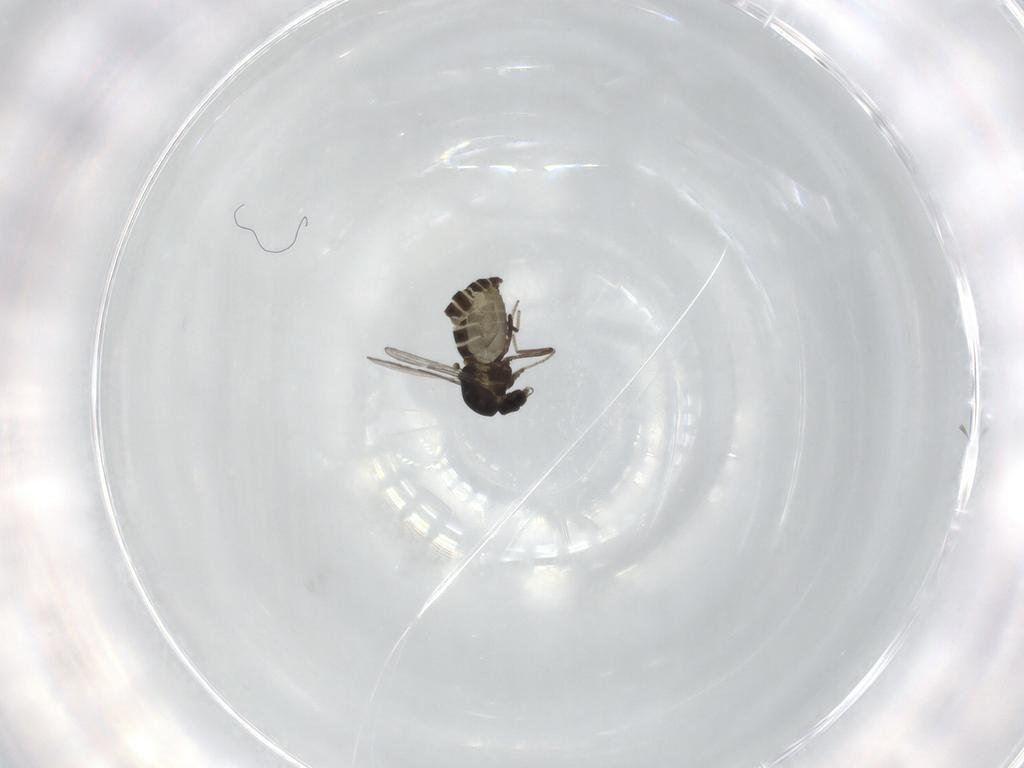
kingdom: Animalia
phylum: Arthropoda
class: Insecta
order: Diptera
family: Ceratopogonidae
